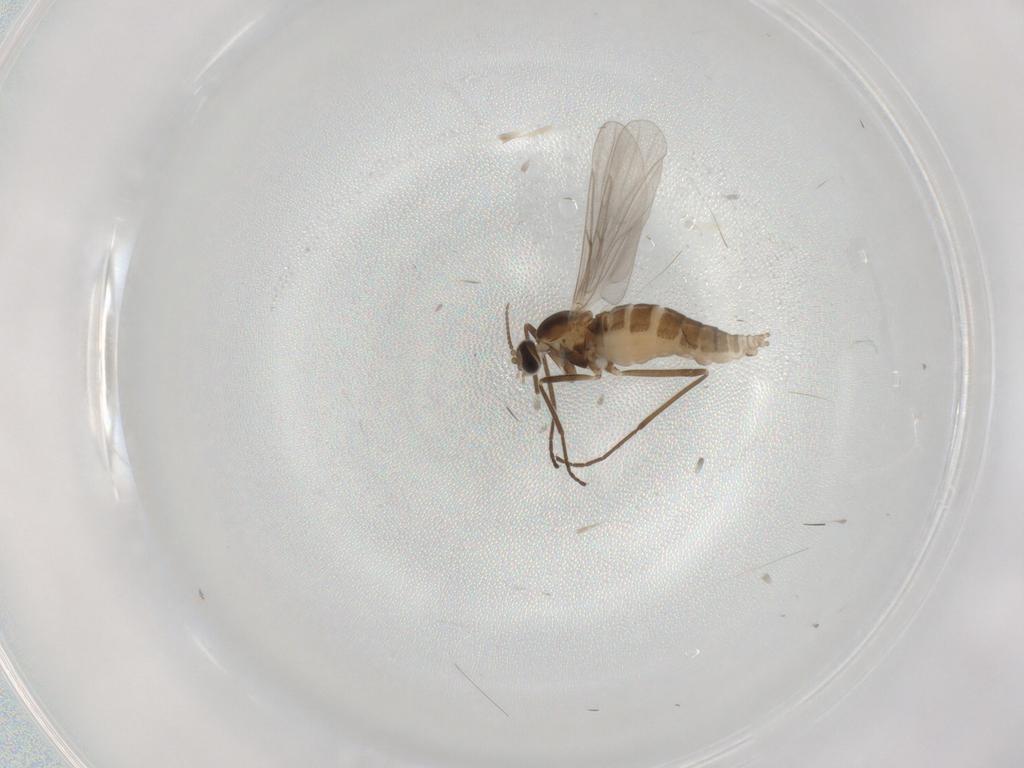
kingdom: Animalia
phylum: Arthropoda
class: Insecta
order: Diptera
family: Cecidomyiidae
